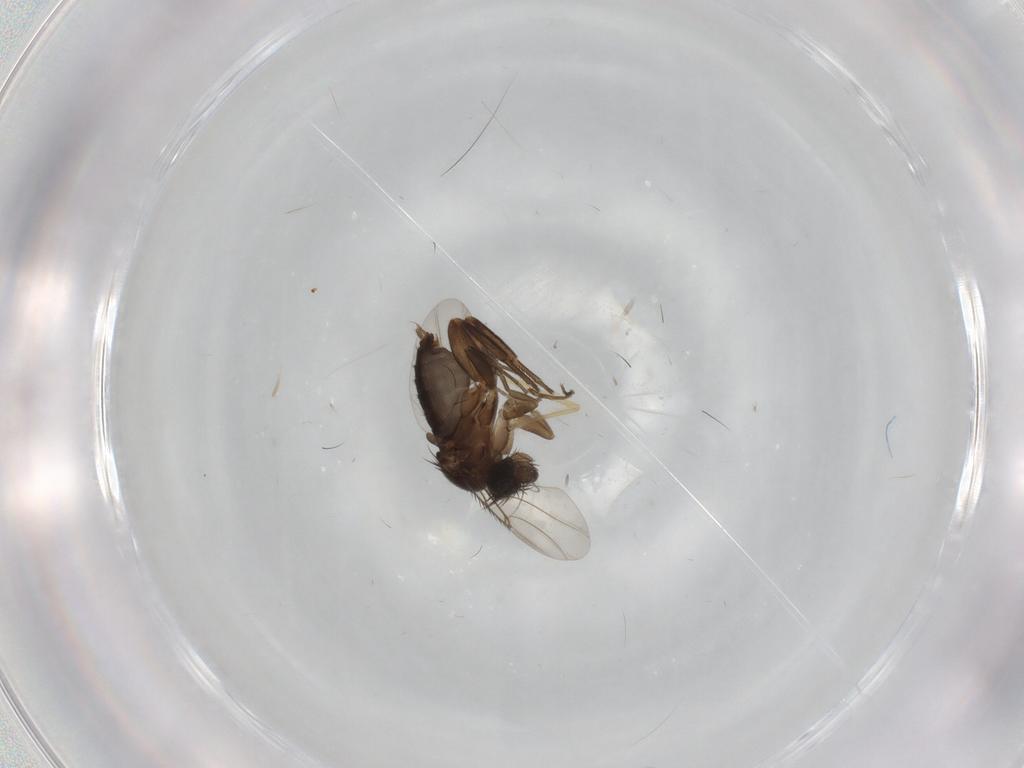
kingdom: Animalia
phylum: Arthropoda
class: Insecta
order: Diptera
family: Phoridae
